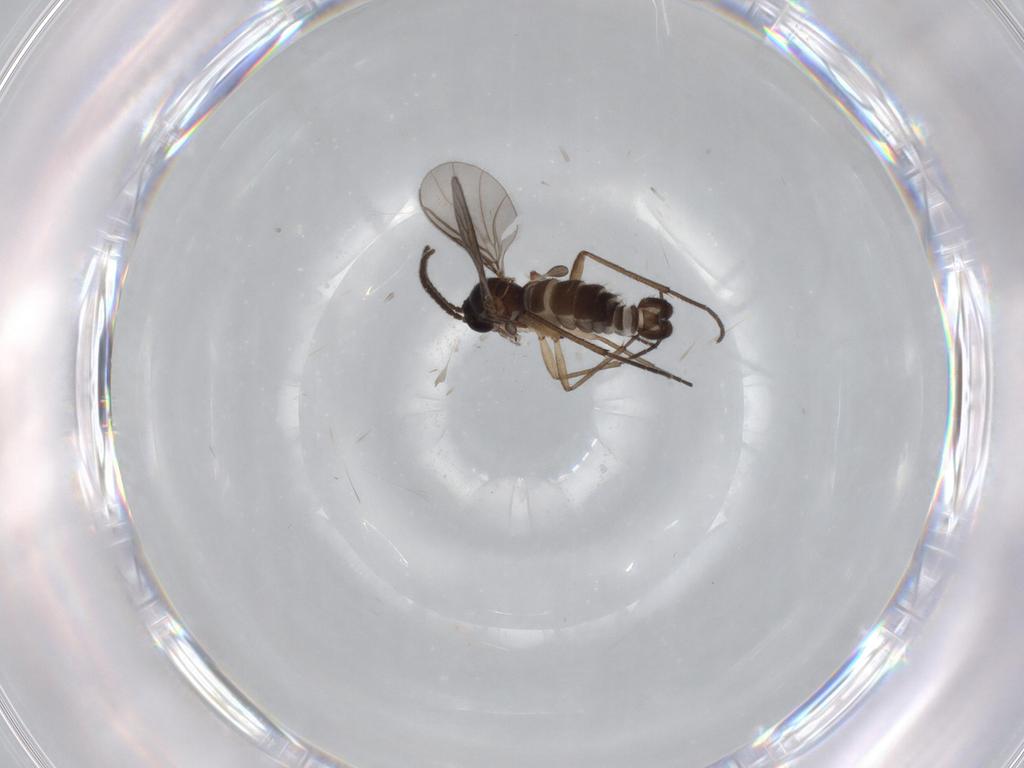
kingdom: Animalia
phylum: Arthropoda
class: Insecta
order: Diptera
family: Sciaridae
